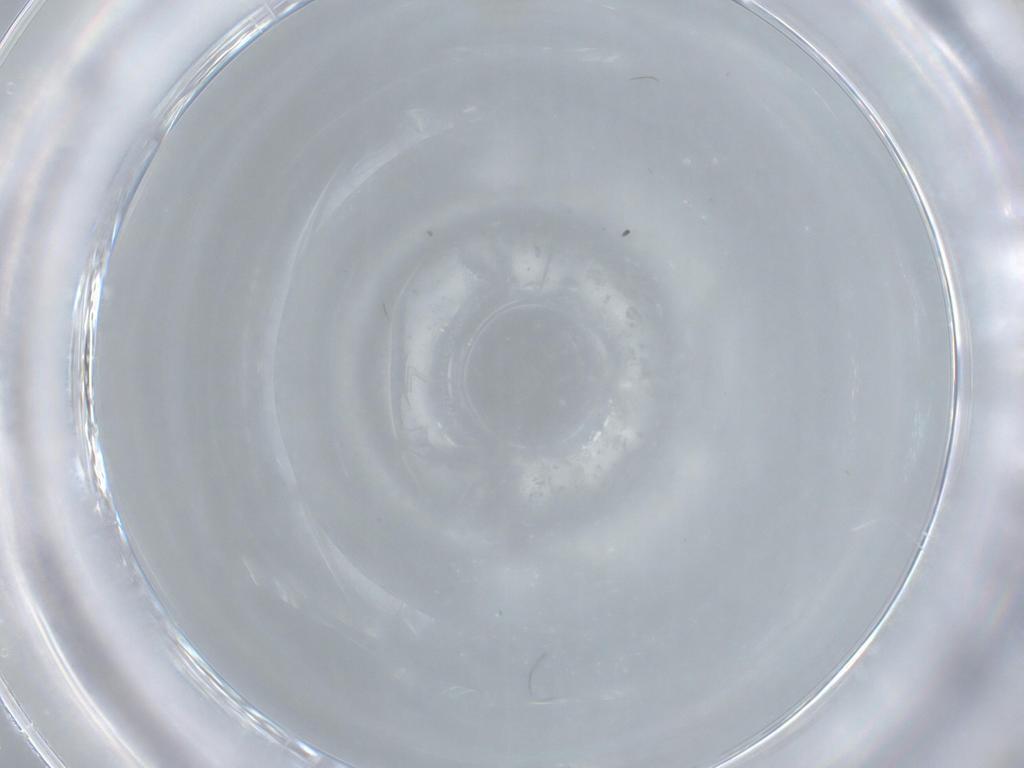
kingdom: Animalia
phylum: Arthropoda
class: Insecta
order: Diptera
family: Ceratopogonidae
